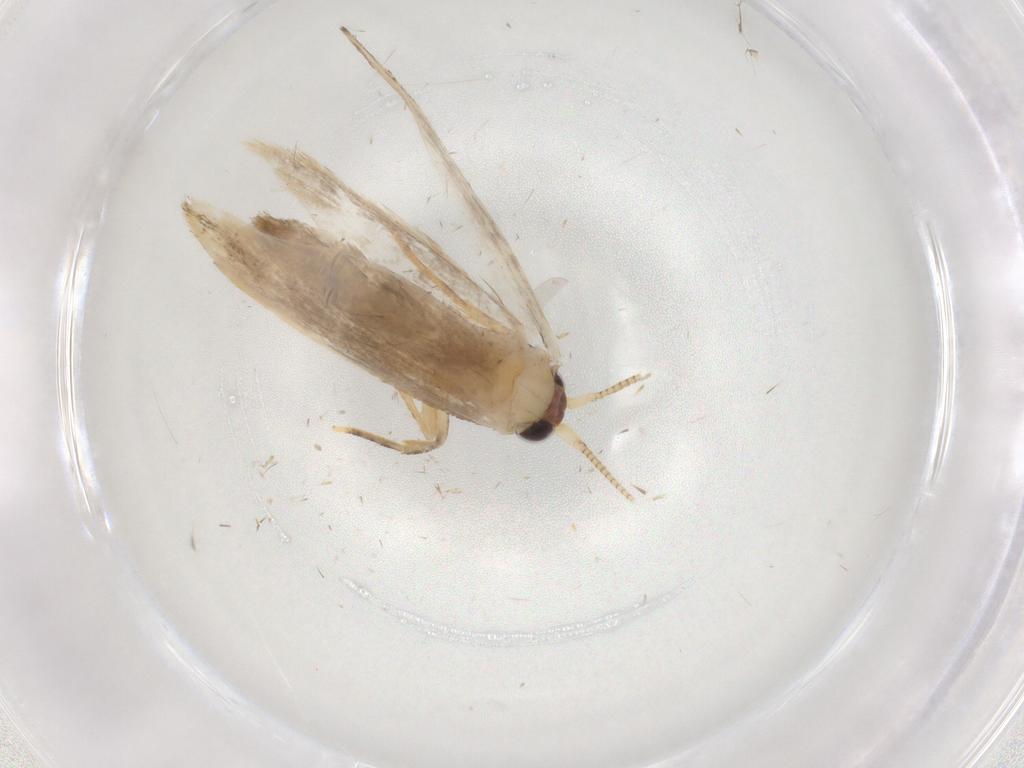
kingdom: Animalia
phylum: Arthropoda
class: Insecta
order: Lepidoptera
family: Nepticulidae
